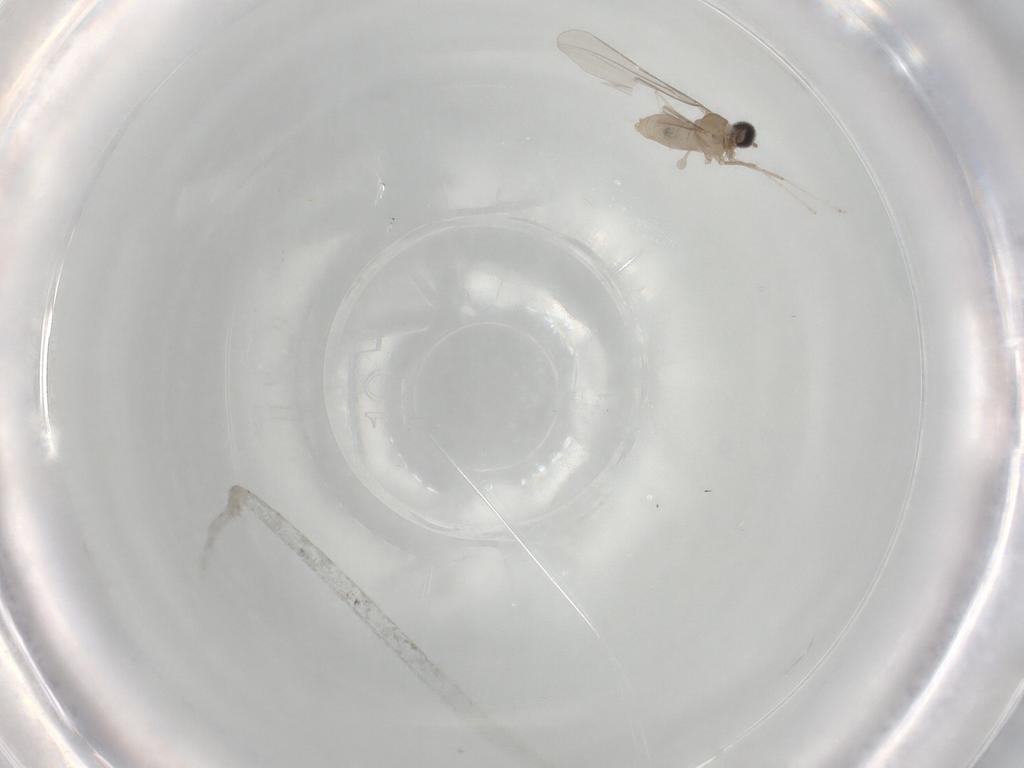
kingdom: Animalia
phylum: Arthropoda
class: Insecta
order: Diptera
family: Cecidomyiidae
